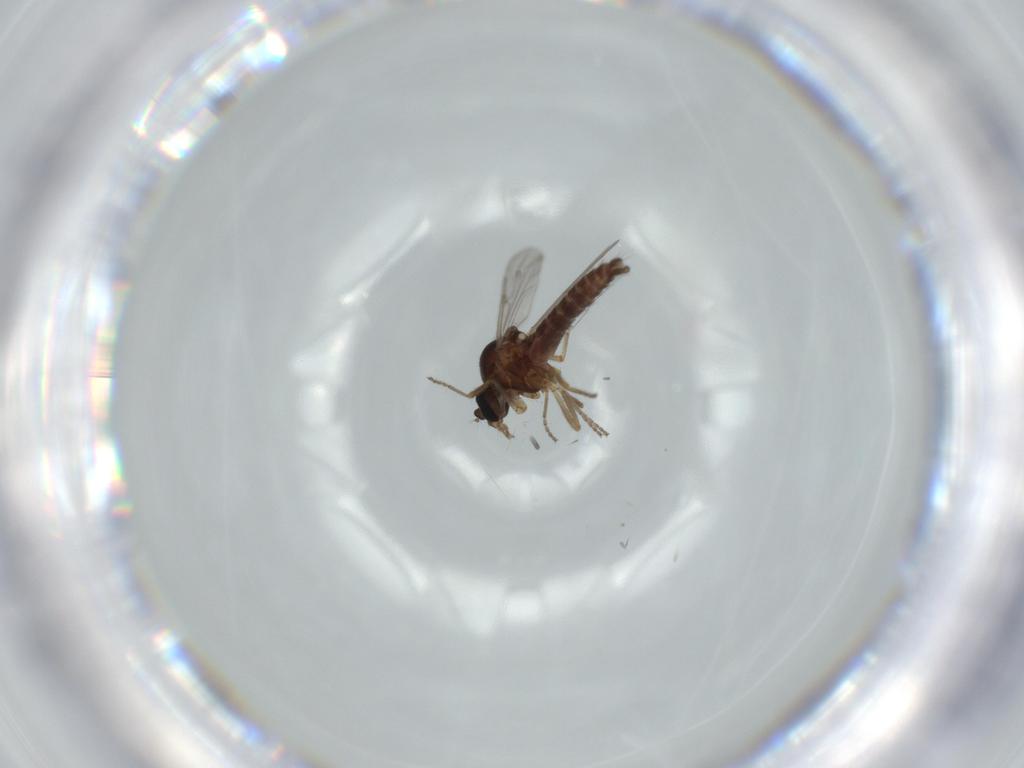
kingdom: Animalia
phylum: Arthropoda
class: Insecta
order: Diptera
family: Ceratopogonidae
